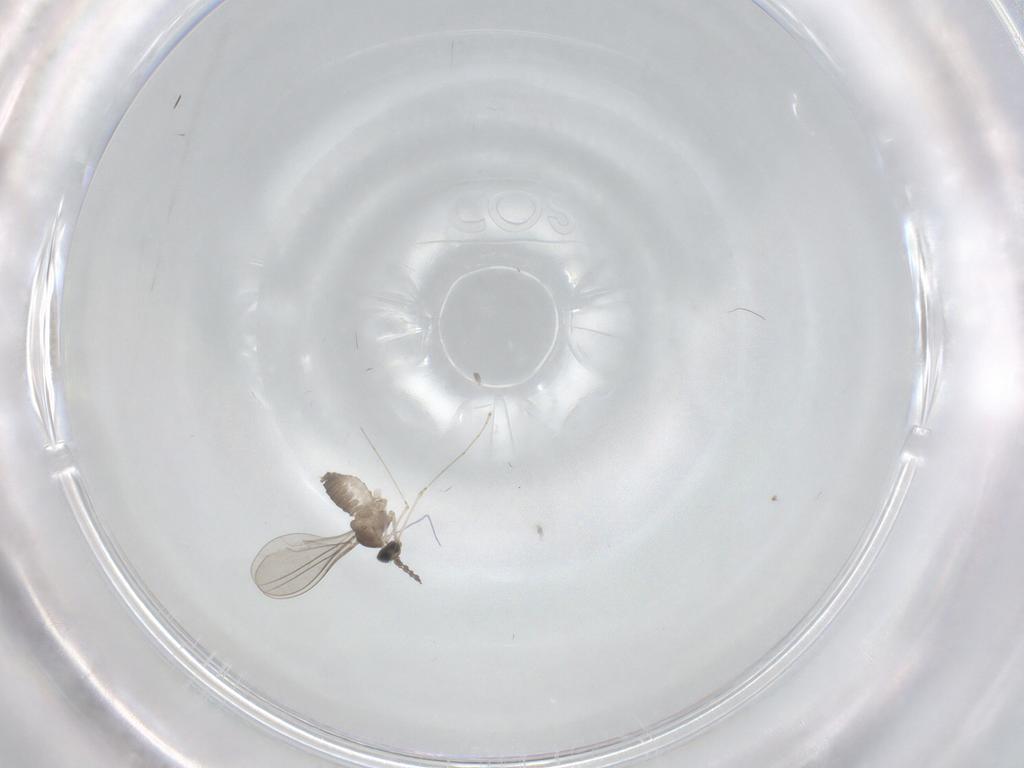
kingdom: Animalia
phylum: Arthropoda
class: Insecta
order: Diptera
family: Cecidomyiidae
